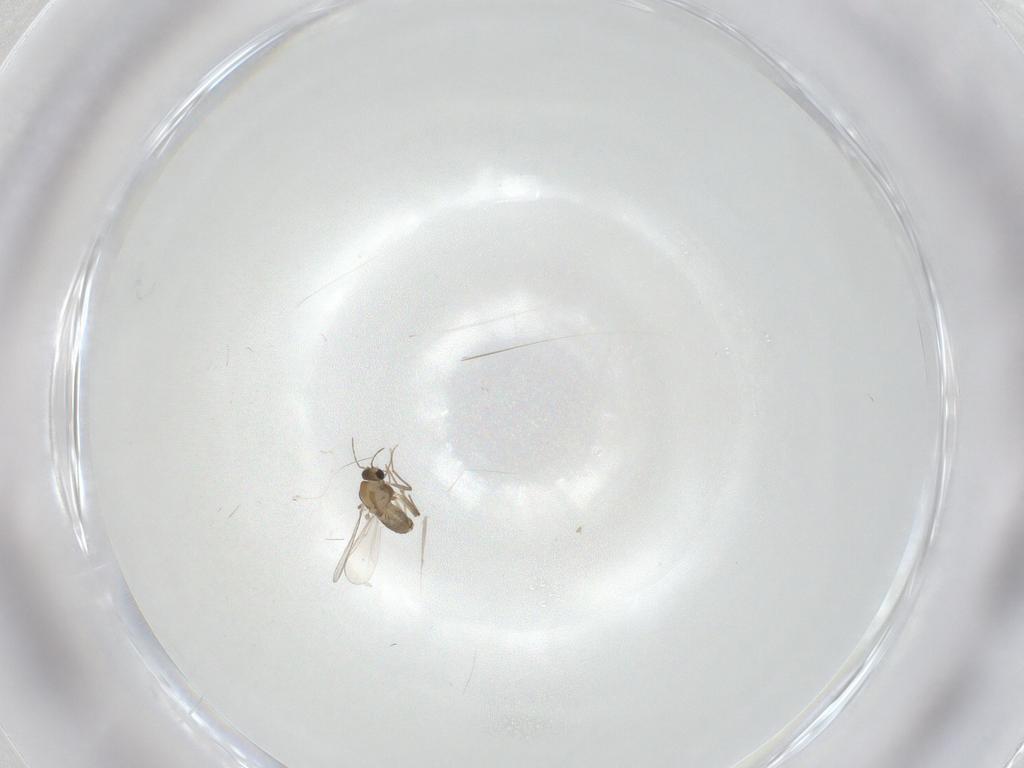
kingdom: Animalia
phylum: Arthropoda
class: Insecta
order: Diptera
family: Chironomidae
